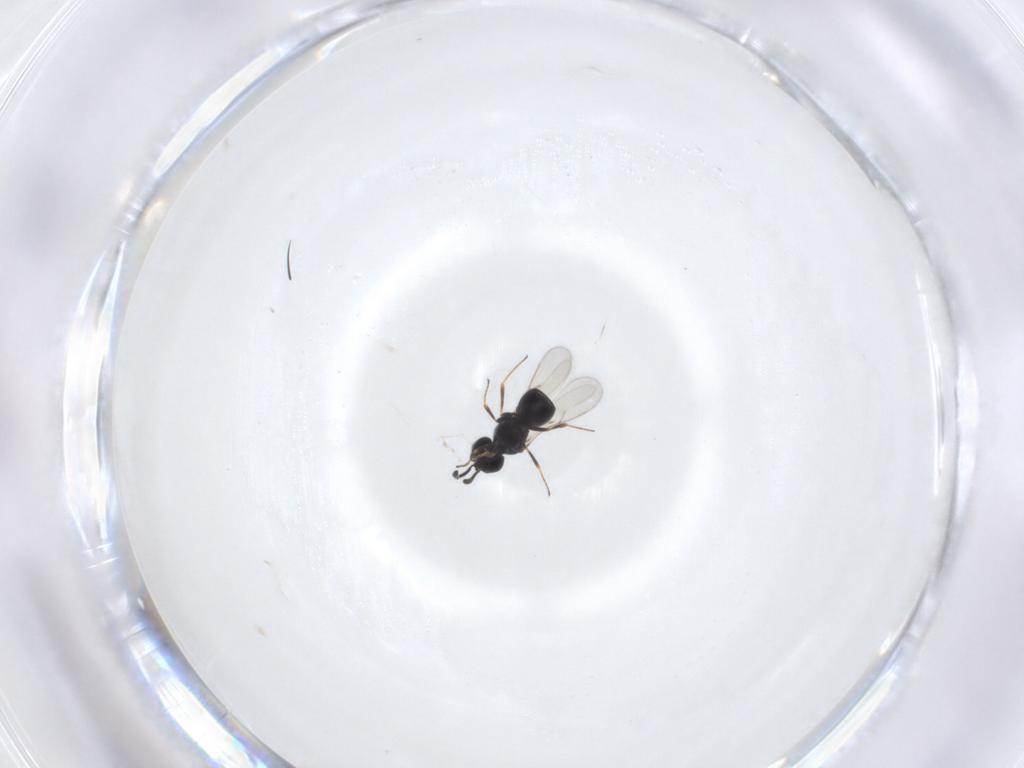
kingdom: Animalia
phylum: Arthropoda
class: Insecta
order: Hymenoptera
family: Scelionidae
